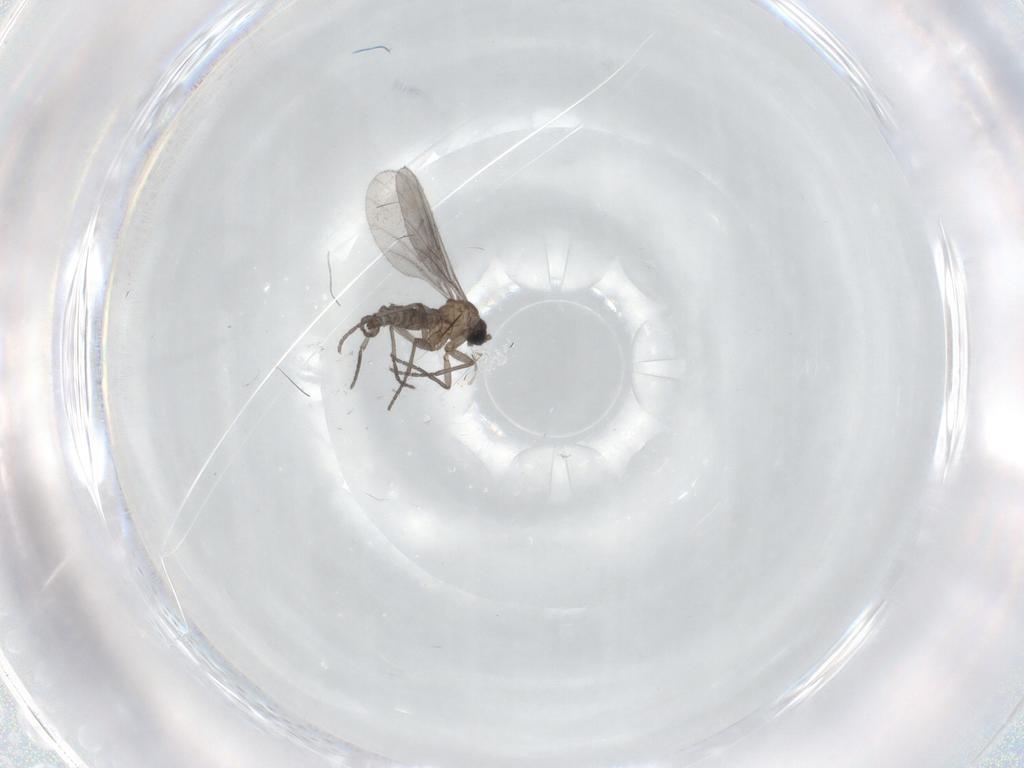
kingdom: Animalia
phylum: Arthropoda
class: Insecta
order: Diptera
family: Sciaridae
